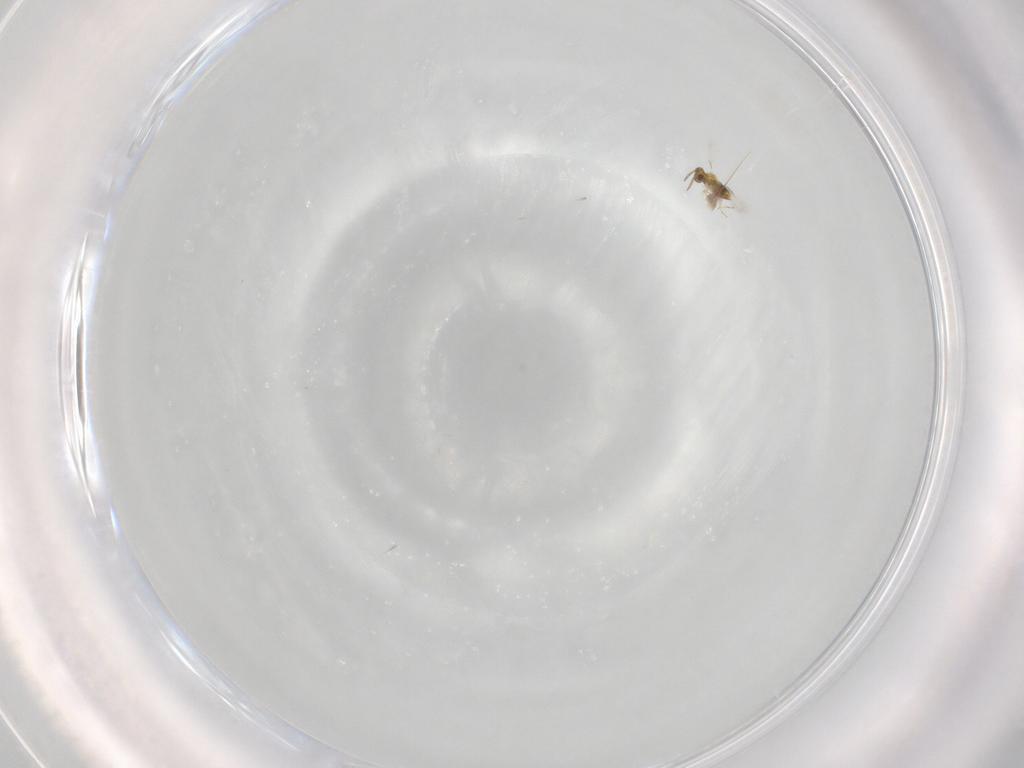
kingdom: Animalia
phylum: Arthropoda
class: Insecta
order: Hymenoptera
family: Aphelinidae
